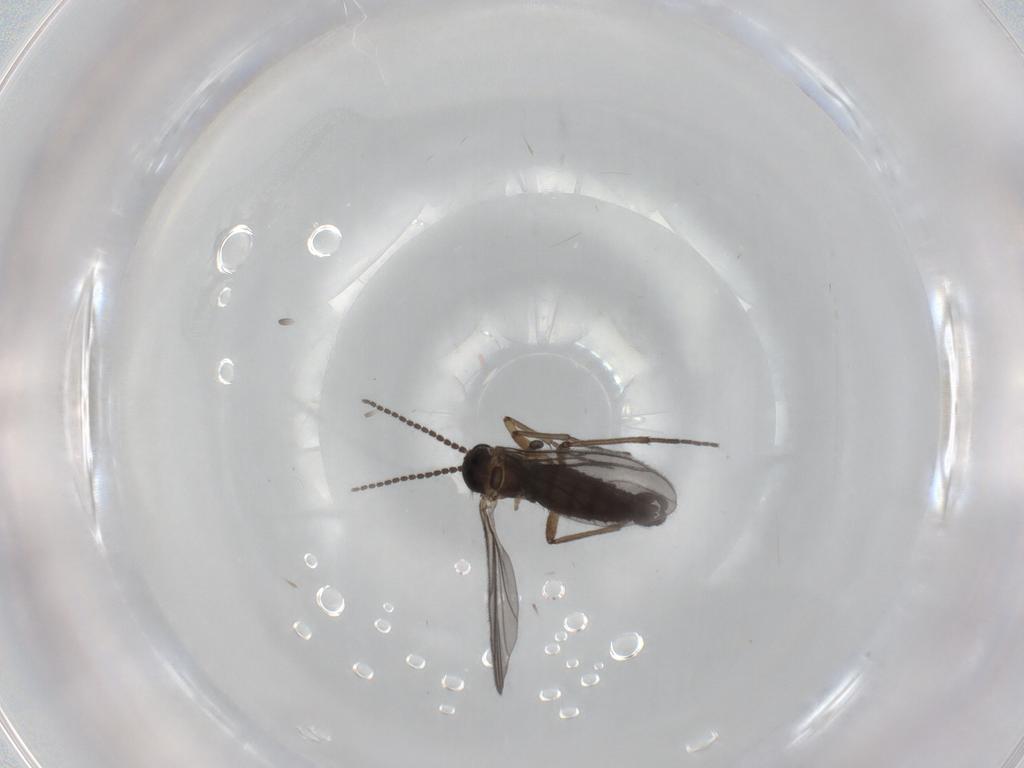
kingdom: Animalia
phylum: Arthropoda
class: Insecta
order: Diptera
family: Sciaridae
